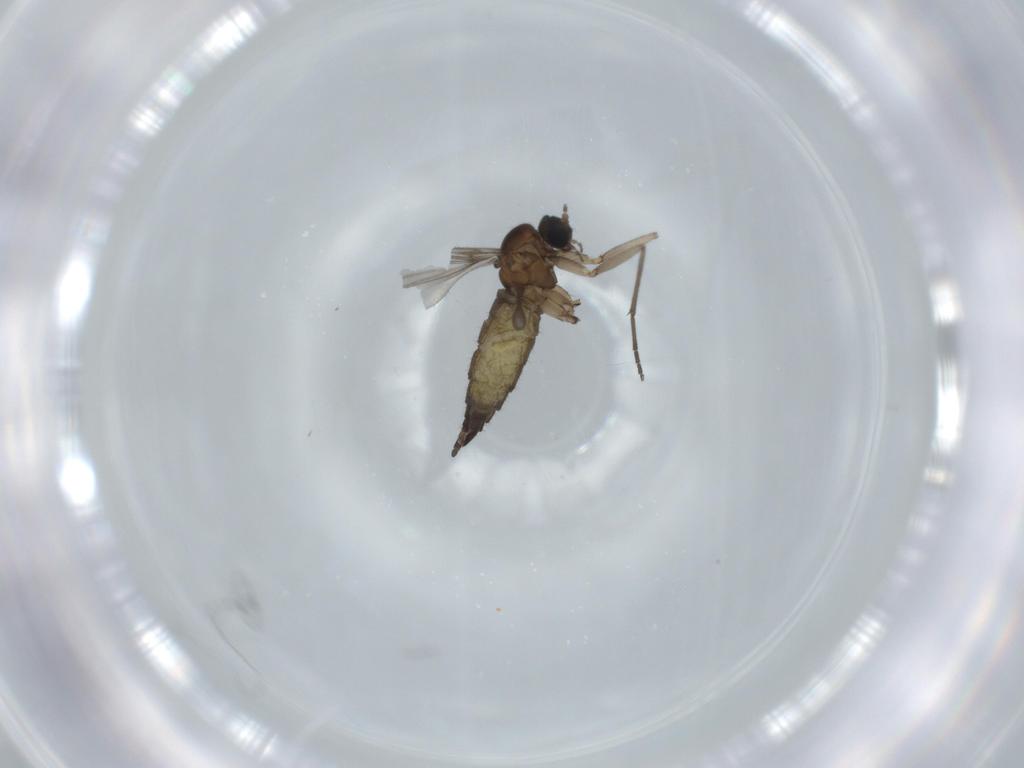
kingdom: Animalia
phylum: Arthropoda
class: Insecta
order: Diptera
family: Sciaridae
